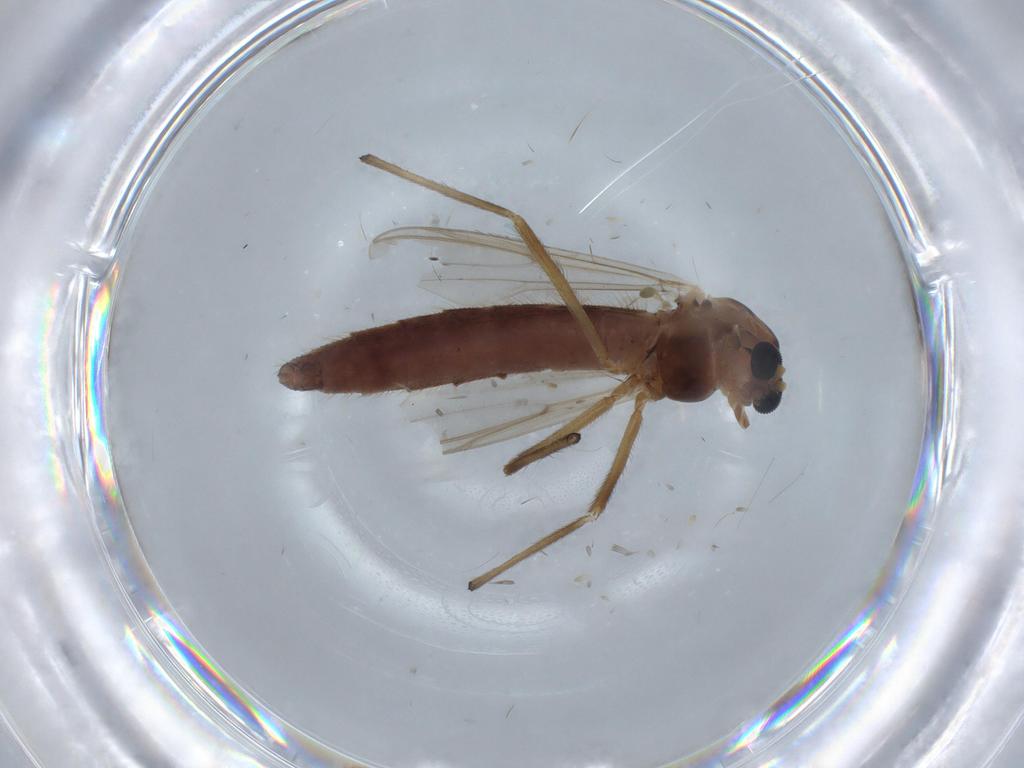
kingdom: Animalia
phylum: Arthropoda
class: Insecta
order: Diptera
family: Chironomidae
